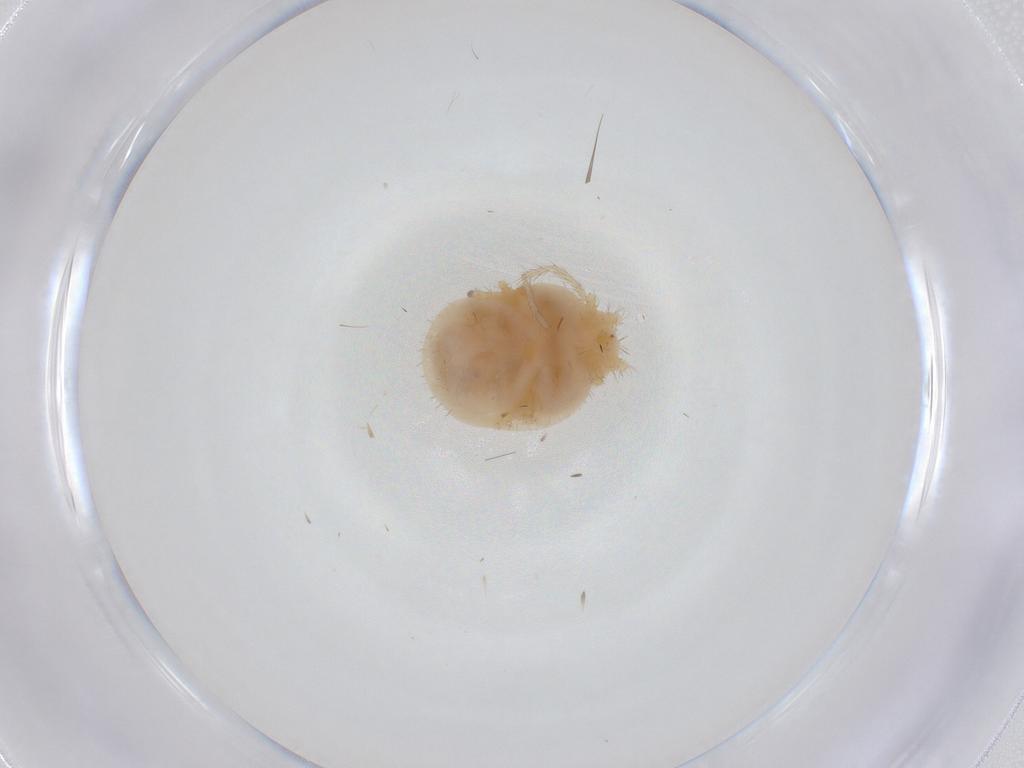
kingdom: Animalia
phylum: Arthropoda
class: Arachnida
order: Trombidiformes
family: Erythraeidae
